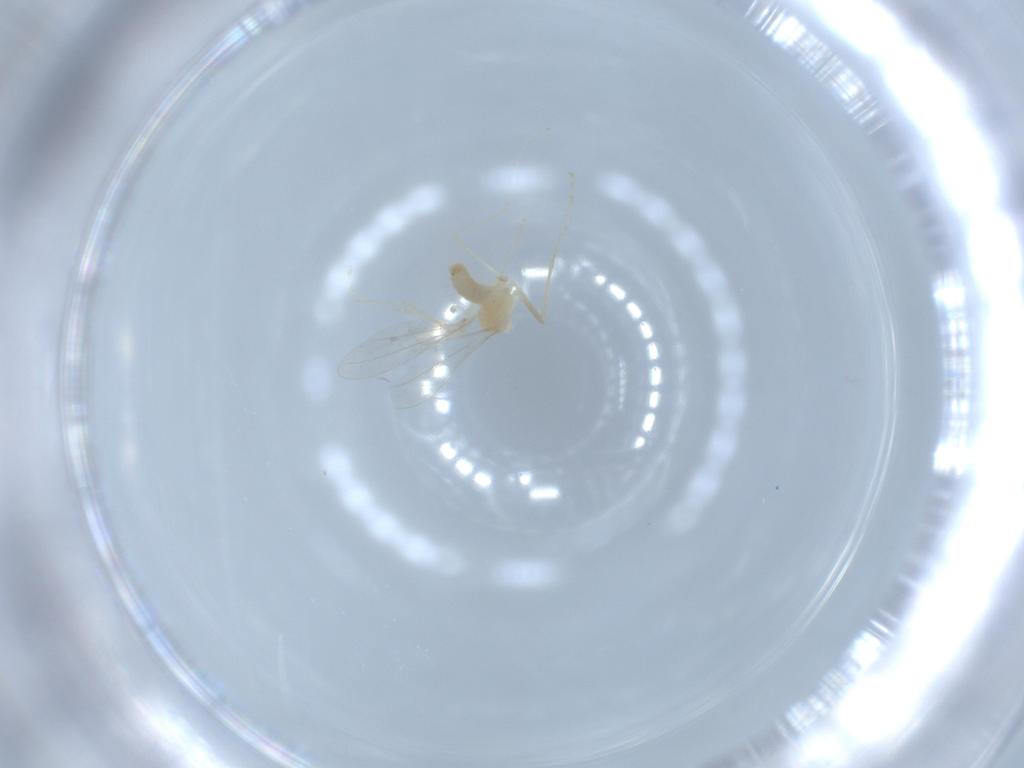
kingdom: Animalia
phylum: Arthropoda
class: Insecta
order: Diptera
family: Cecidomyiidae
